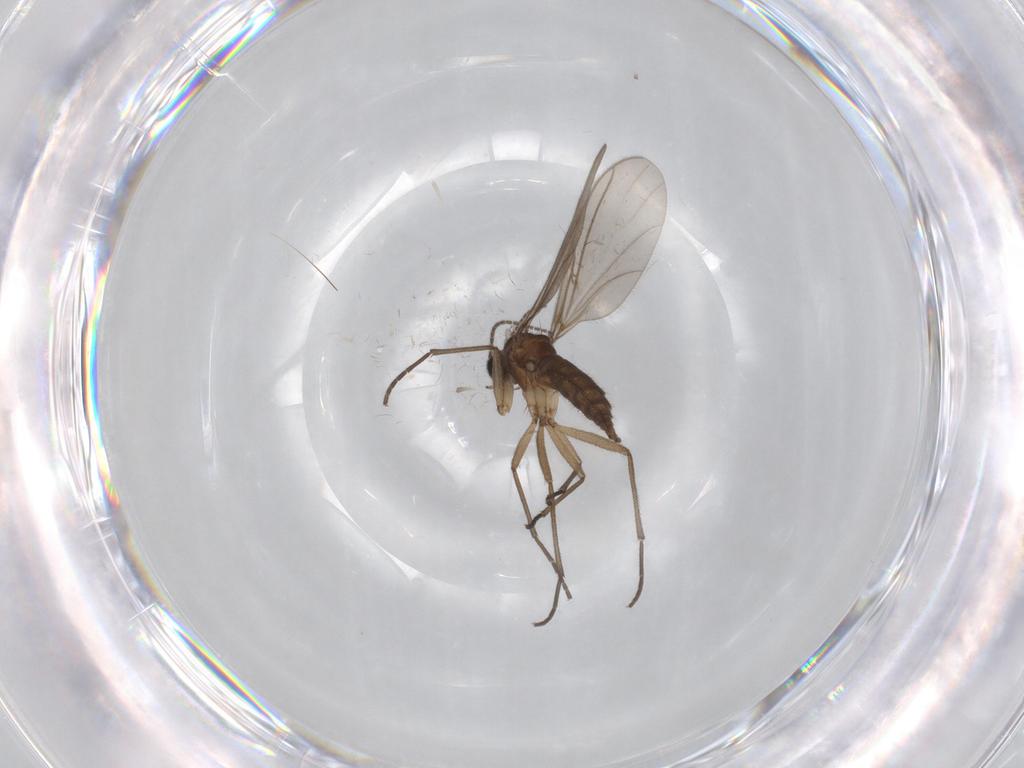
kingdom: Animalia
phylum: Arthropoda
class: Insecta
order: Diptera
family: Sciaridae
